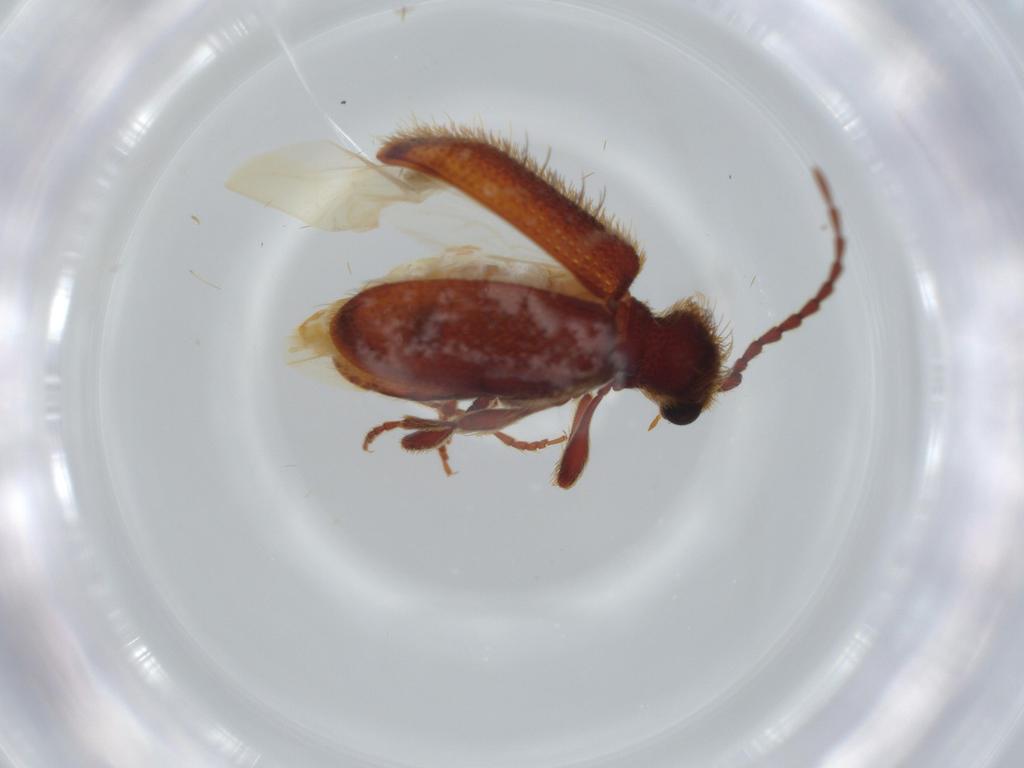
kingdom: Animalia
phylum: Arthropoda
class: Insecta
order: Coleoptera
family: Ptinidae
